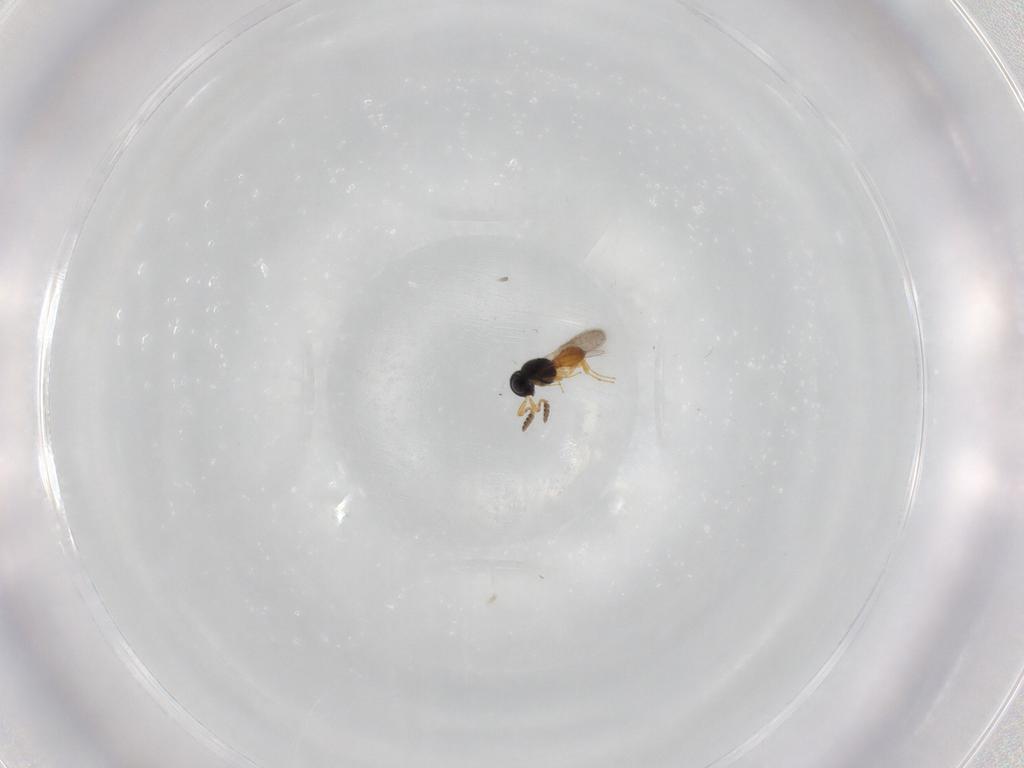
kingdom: Animalia
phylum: Arthropoda
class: Insecta
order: Hymenoptera
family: Scelionidae
